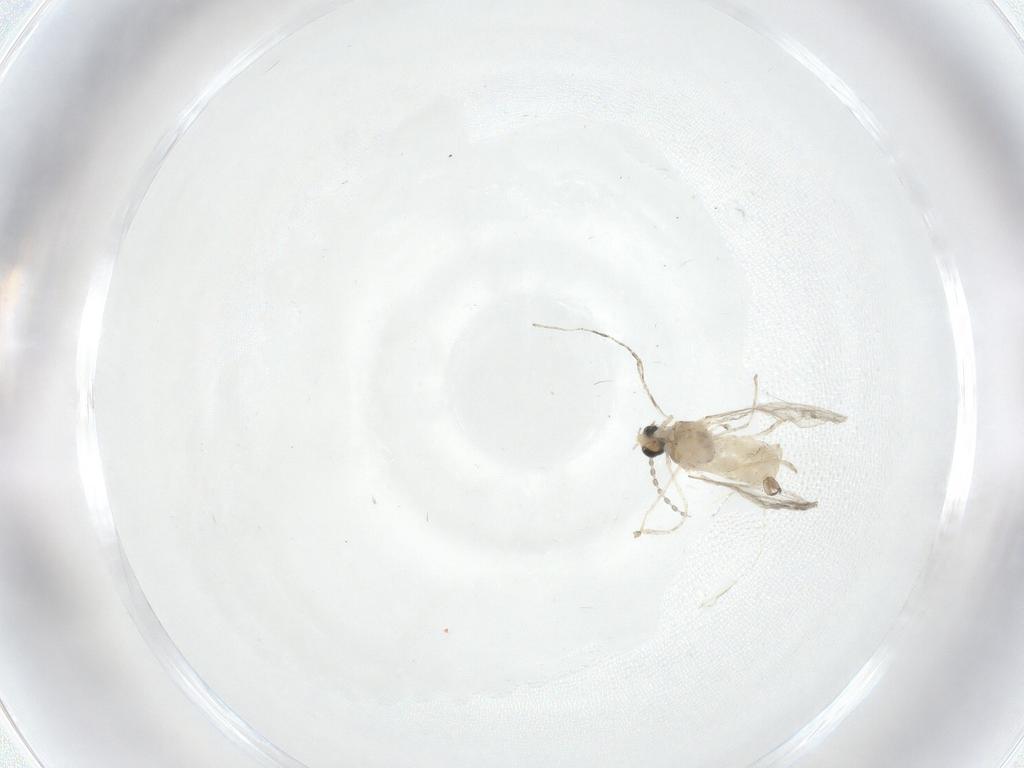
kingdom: Animalia
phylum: Arthropoda
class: Insecta
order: Diptera
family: Cecidomyiidae
